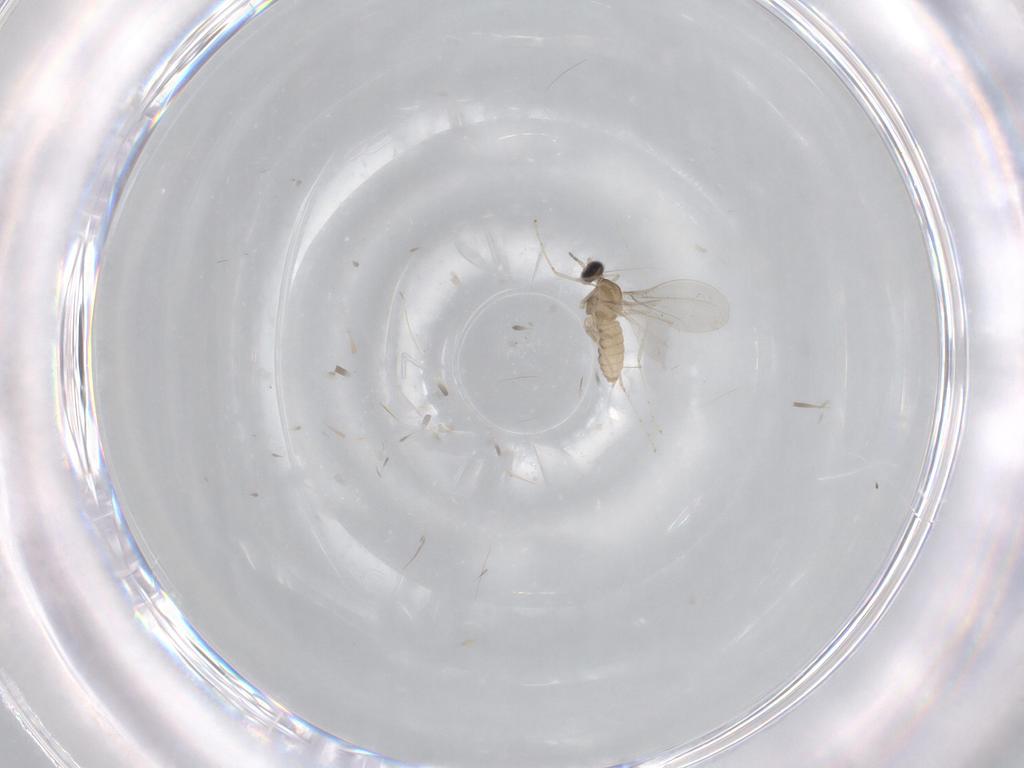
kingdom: Animalia
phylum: Arthropoda
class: Insecta
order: Diptera
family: Cecidomyiidae
